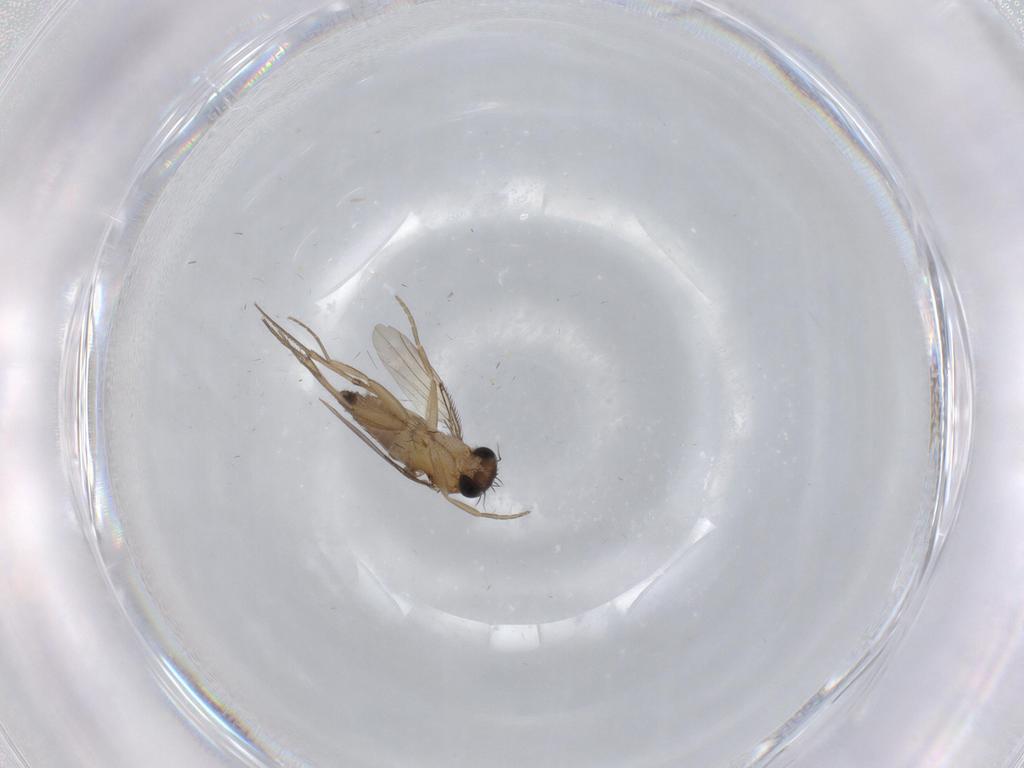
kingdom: Animalia
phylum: Arthropoda
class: Insecta
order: Diptera
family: Phoridae
